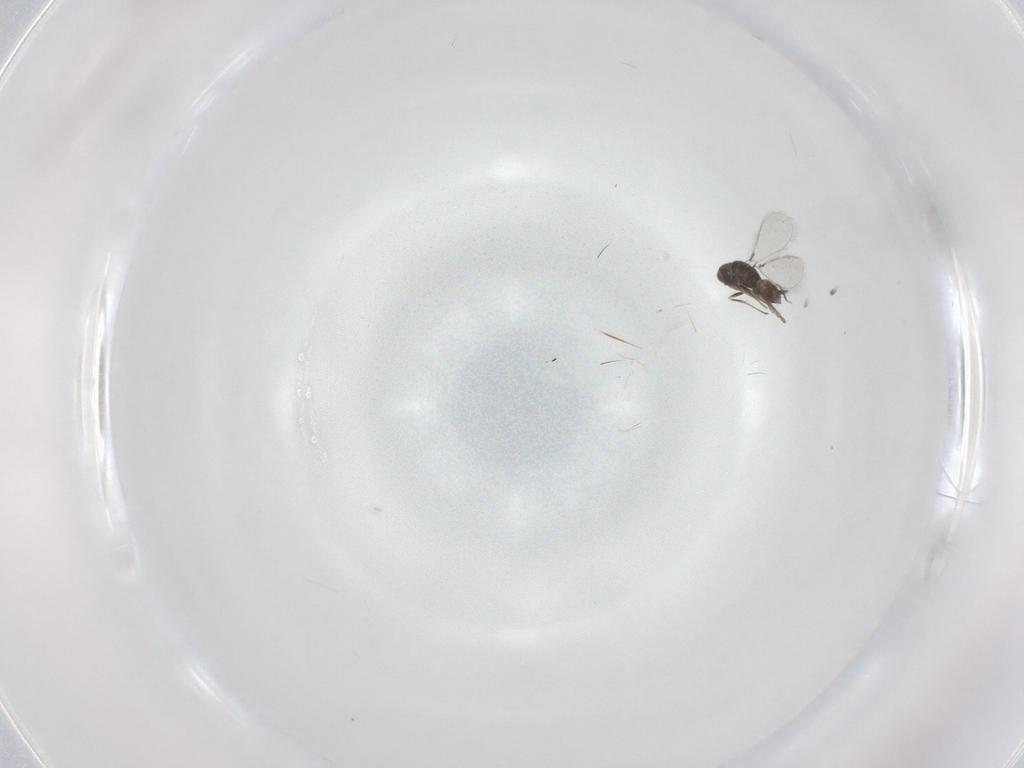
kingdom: Animalia
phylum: Arthropoda
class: Insecta
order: Hymenoptera
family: Mymaridae
